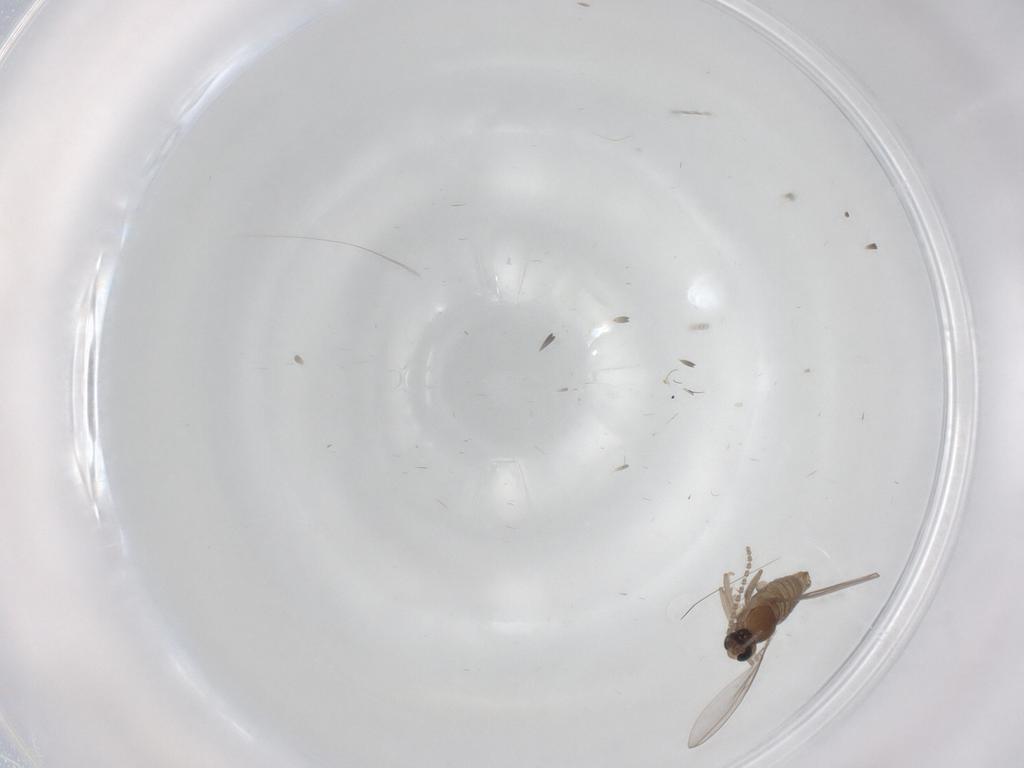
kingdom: Animalia
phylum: Arthropoda
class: Insecta
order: Diptera
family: Cecidomyiidae
